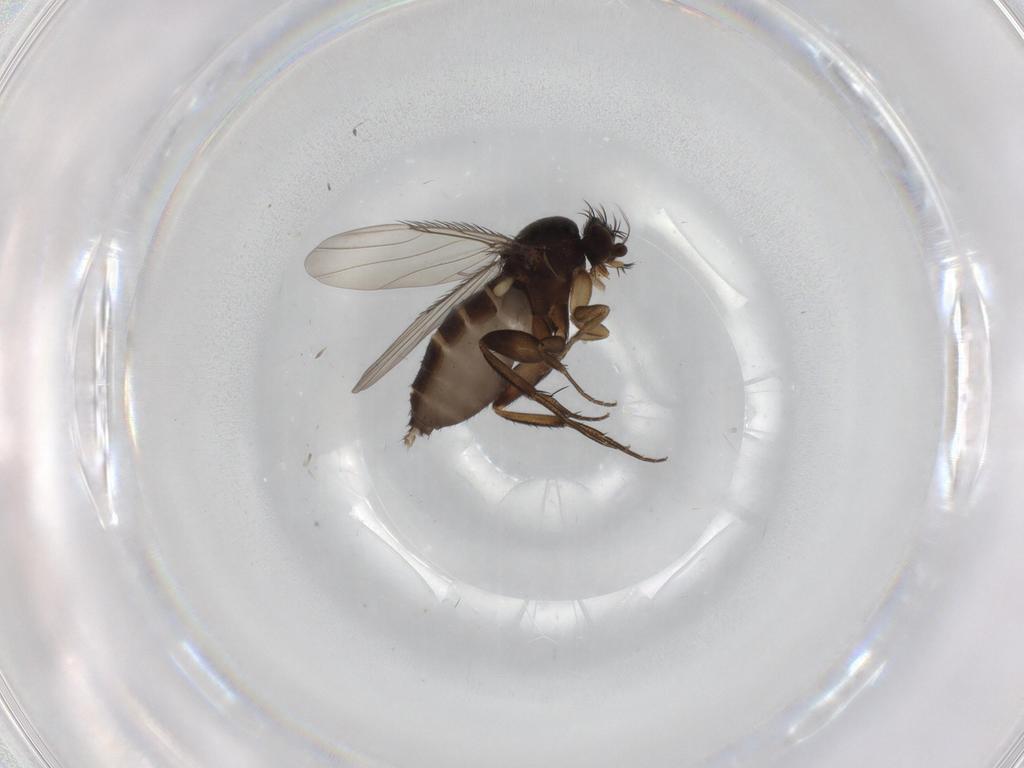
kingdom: Animalia
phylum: Arthropoda
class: Insecta
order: Diptera
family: Phoridae
